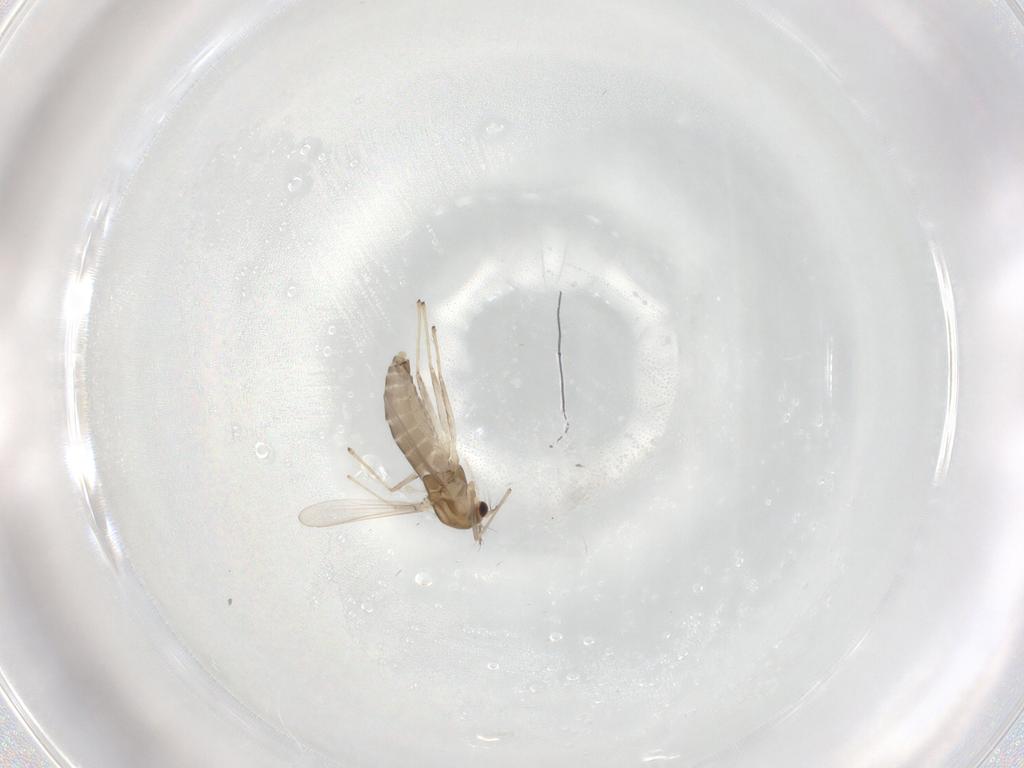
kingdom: Animalia
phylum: Arthropoda
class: Insecta
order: Diptera
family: Chironomidae
